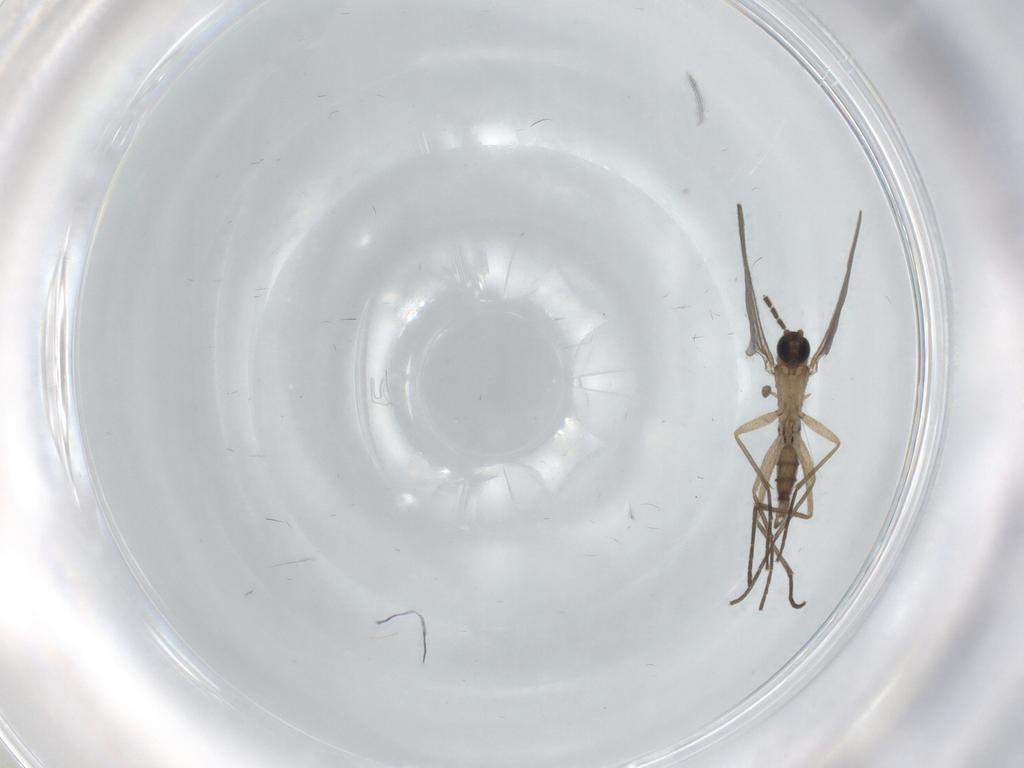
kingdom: Animalia
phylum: Arthropoda
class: Insecta
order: Diptera
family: Sciaridae
